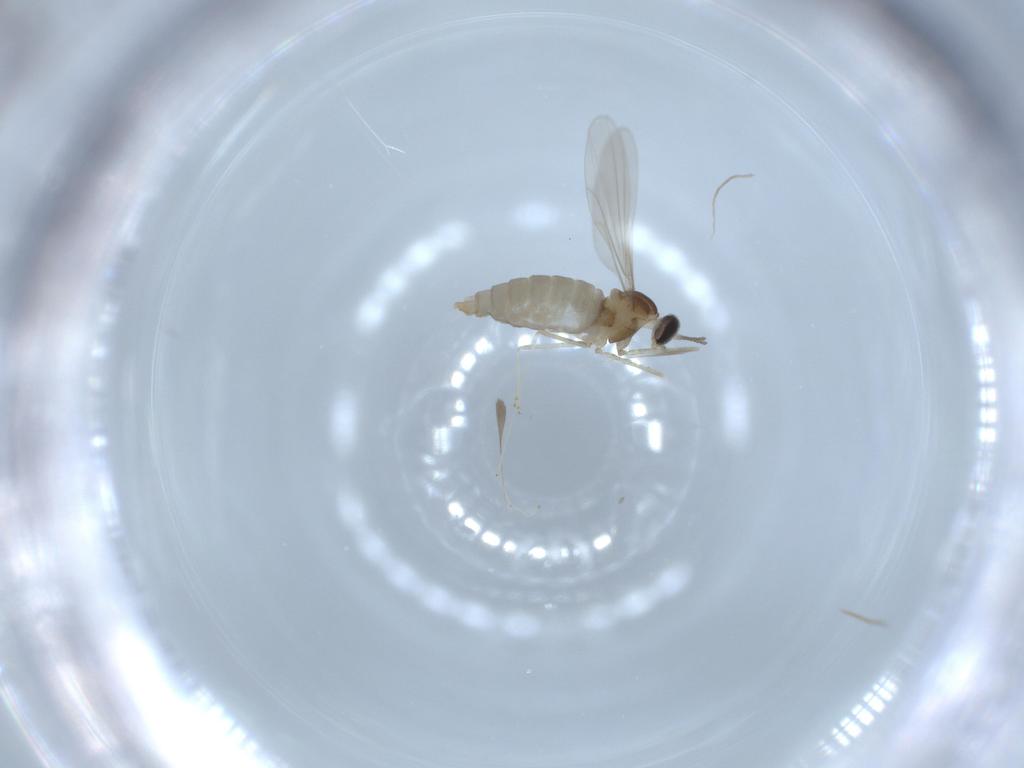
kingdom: Animalia
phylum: Arthropoda
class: Insecta
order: Diptera
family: Cecidomyiidae
